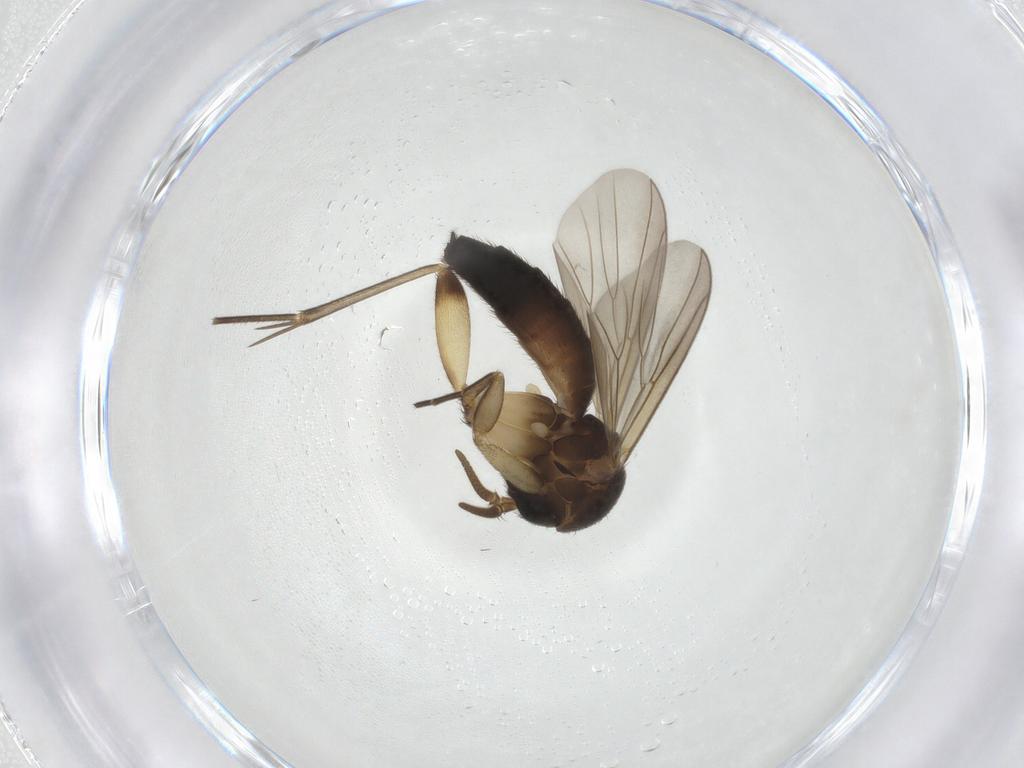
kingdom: Animalia
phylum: Arthropoda
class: Insecta
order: Diptera
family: Mycetophilidae
